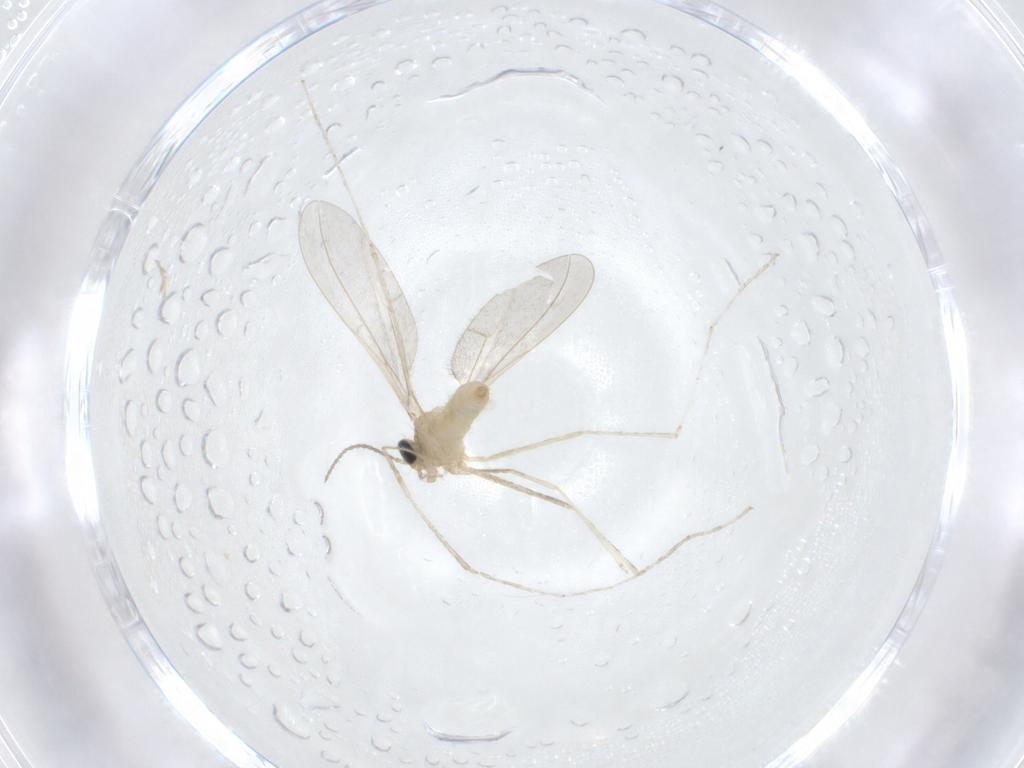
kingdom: Animalia
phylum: Arthropoda
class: Insecta
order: Diptera
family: Cecidomyiidae
